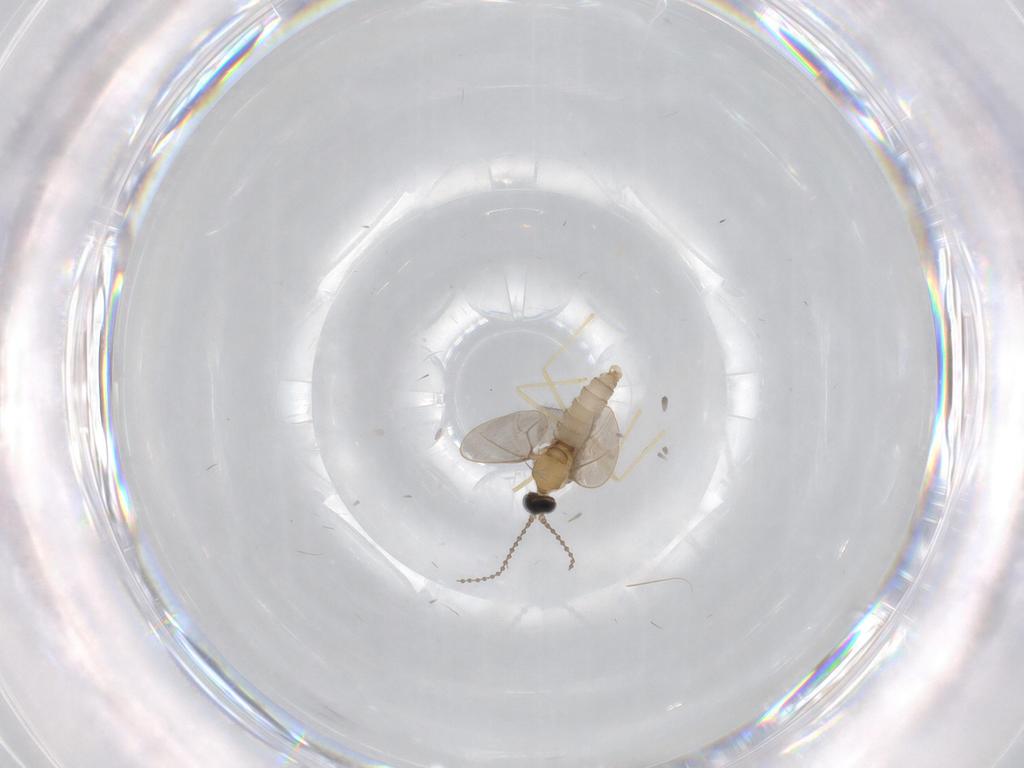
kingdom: Animalia
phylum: Arthropoda
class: Insecta
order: Diptera
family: Cecidomyiidae
